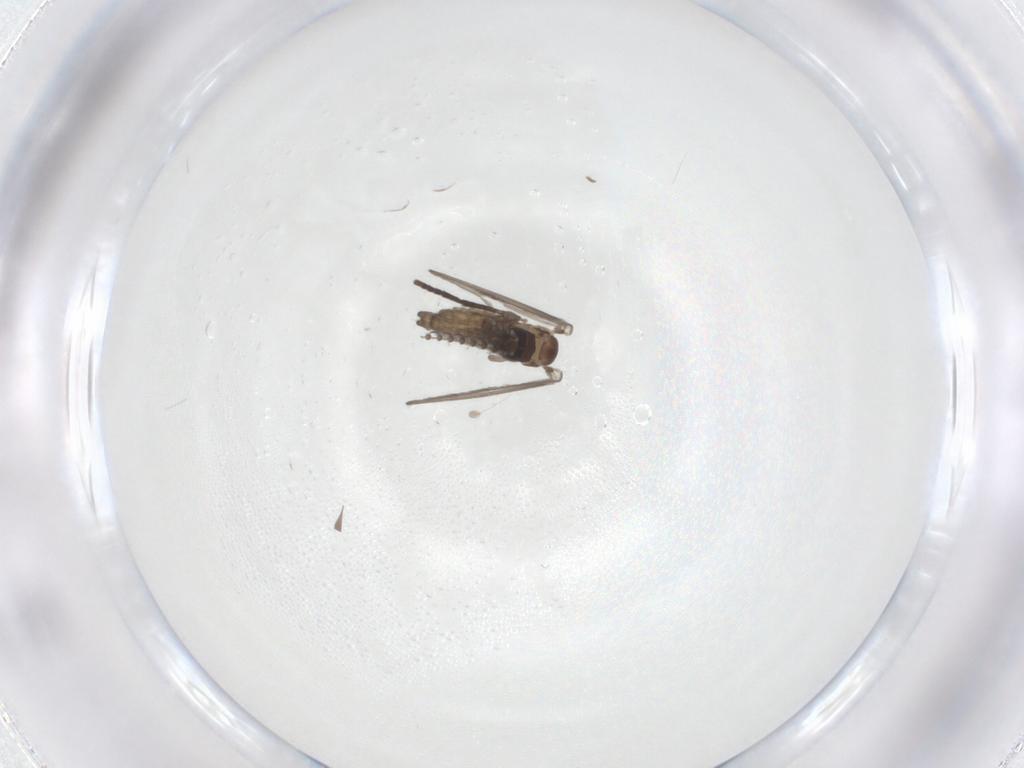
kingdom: Animalia
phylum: Arthropoda
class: Insecta
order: Diptera
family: Psychodidae
